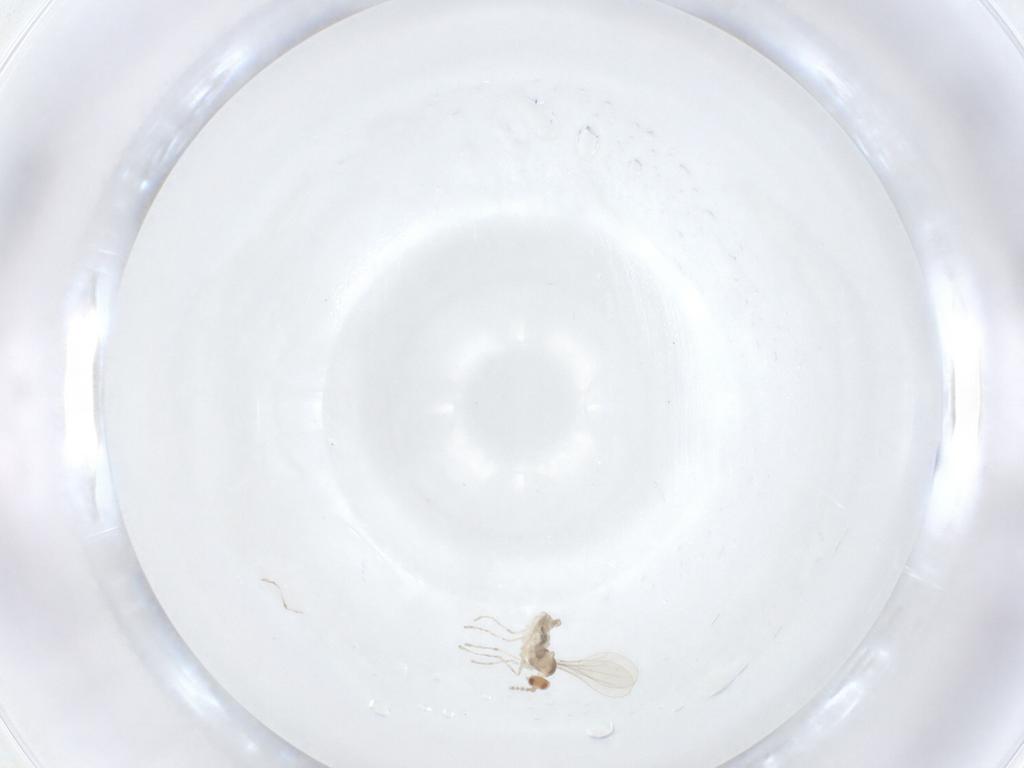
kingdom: Animalia
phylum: Arthropoda
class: Insecta
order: Diptera
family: Cecidomyiidae
